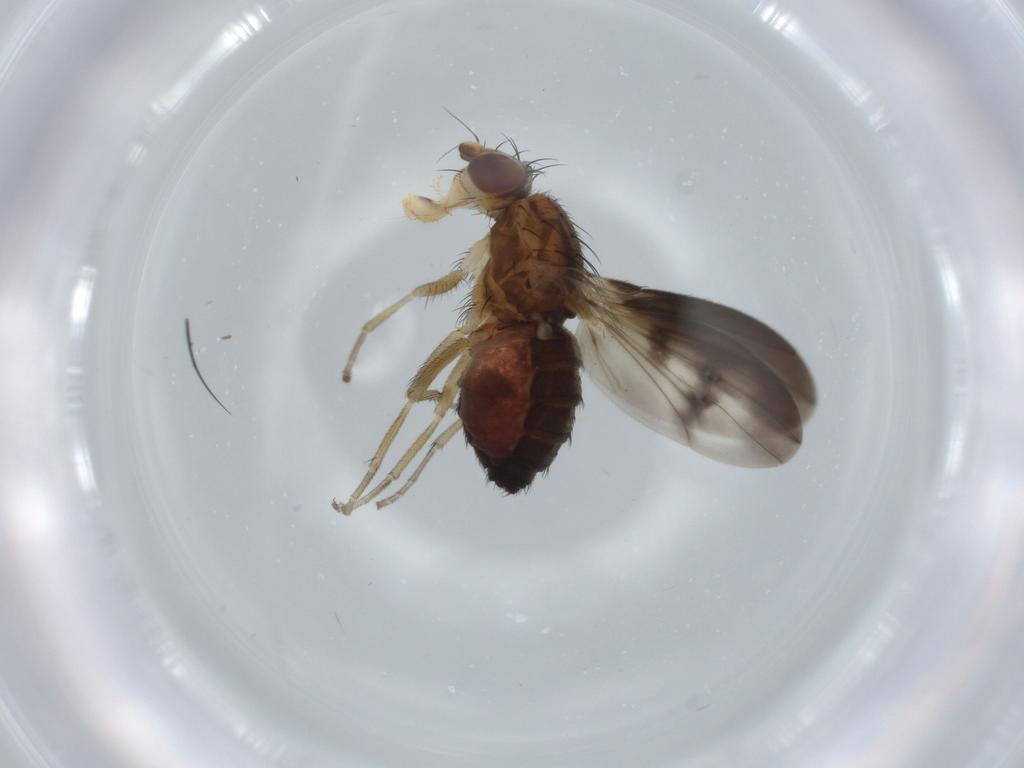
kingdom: Animalia
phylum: Arthropoda
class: Insecta
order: Diptera
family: Cecidomyiidae
